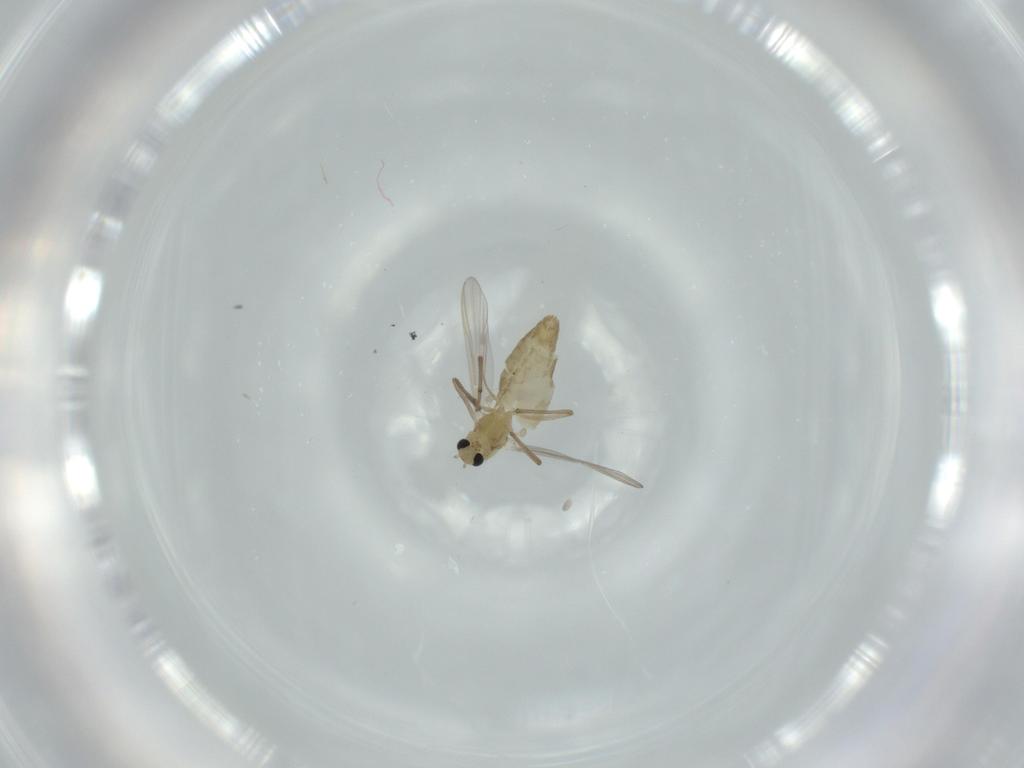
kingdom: Animalia
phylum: Arthropoda
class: Insecta
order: Diptera
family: Chironomidae
